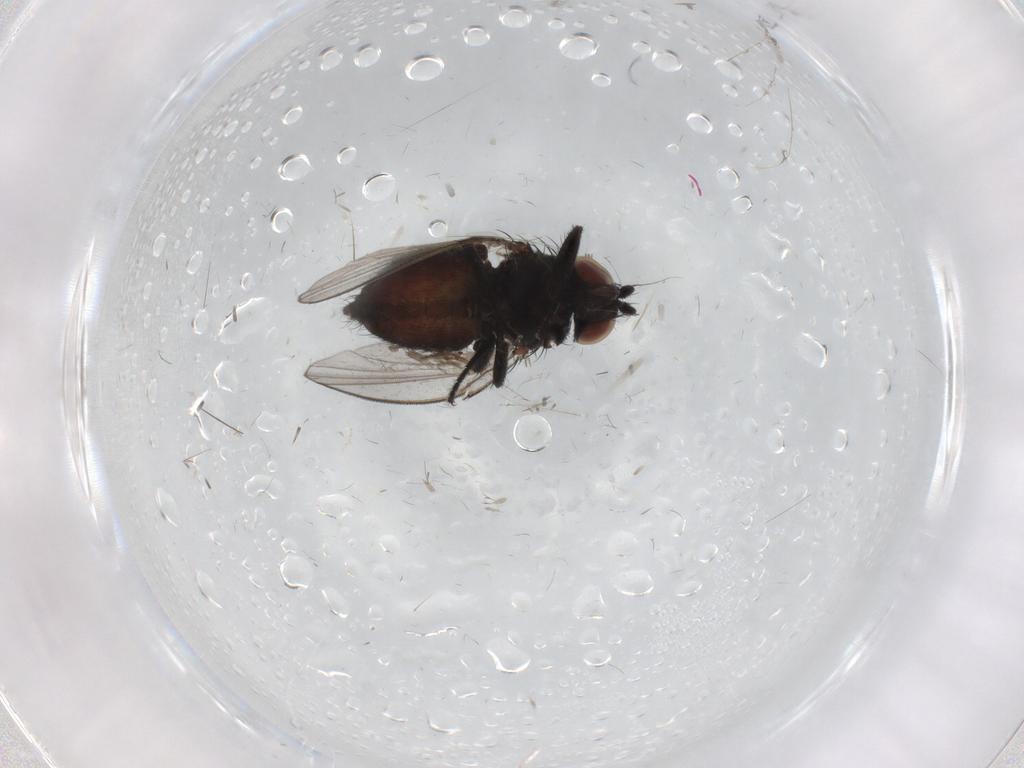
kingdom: Animalia
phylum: Arthropoda
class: Insecta
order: Diptera
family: Milichiidae
